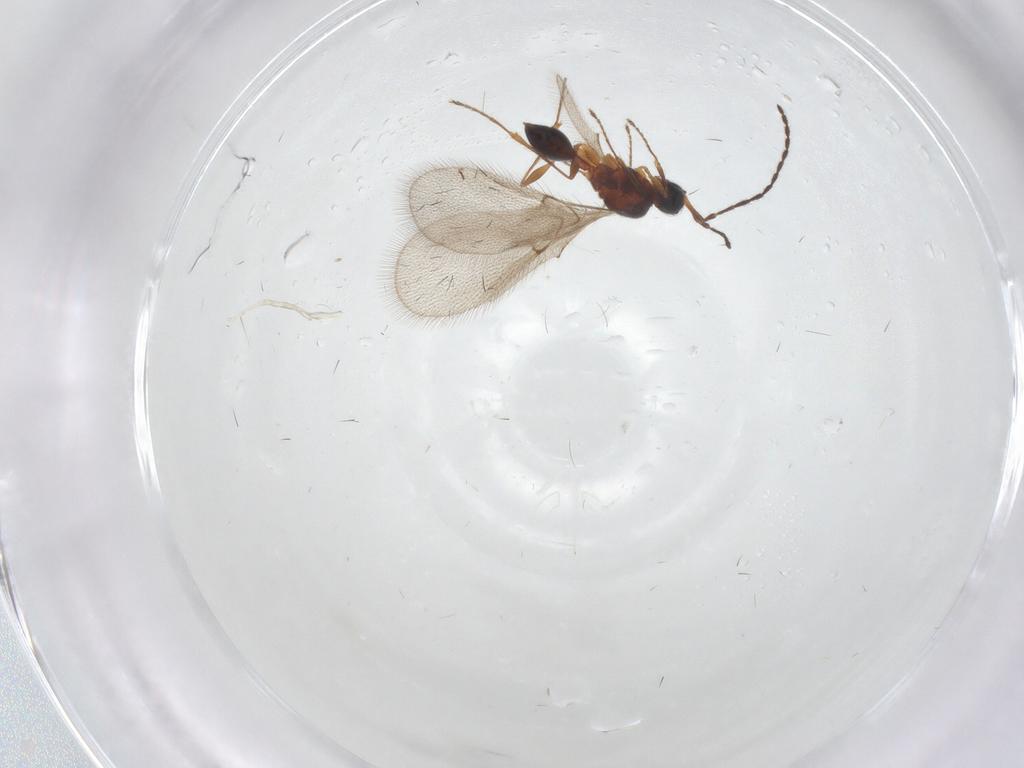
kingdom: Animalia
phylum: Arthropoda
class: Insecta
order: Hymenoptera
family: Diapriidae
